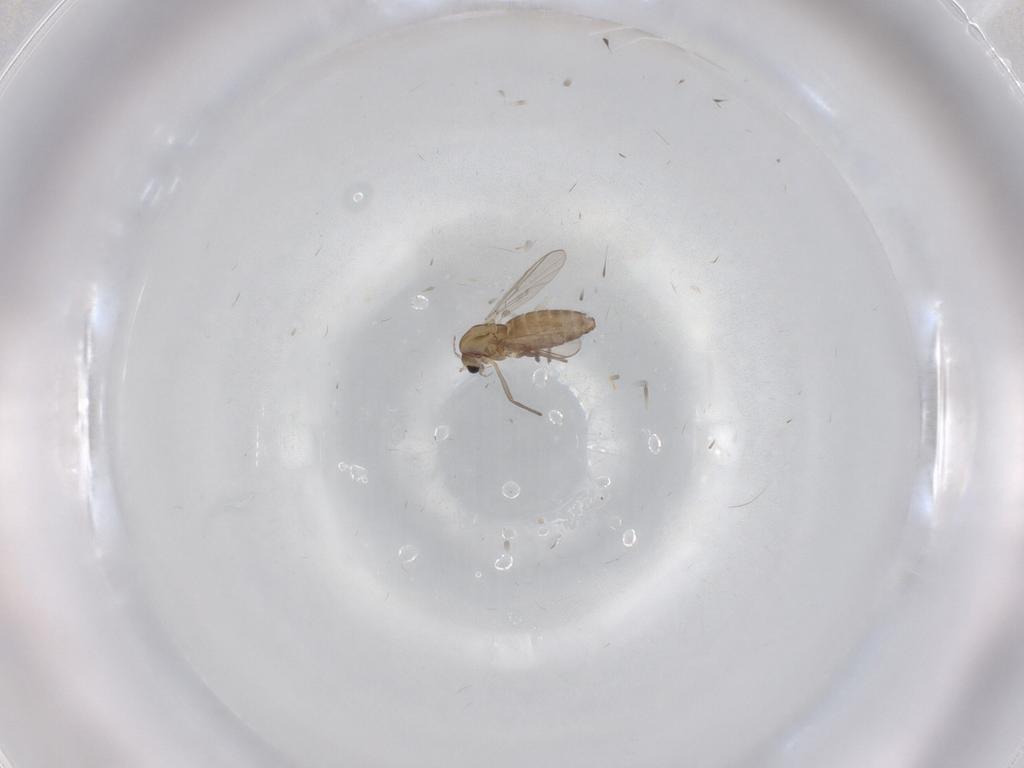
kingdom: Animalia
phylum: Arthropoda
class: Insecta
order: Diptera
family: Chironomidae
